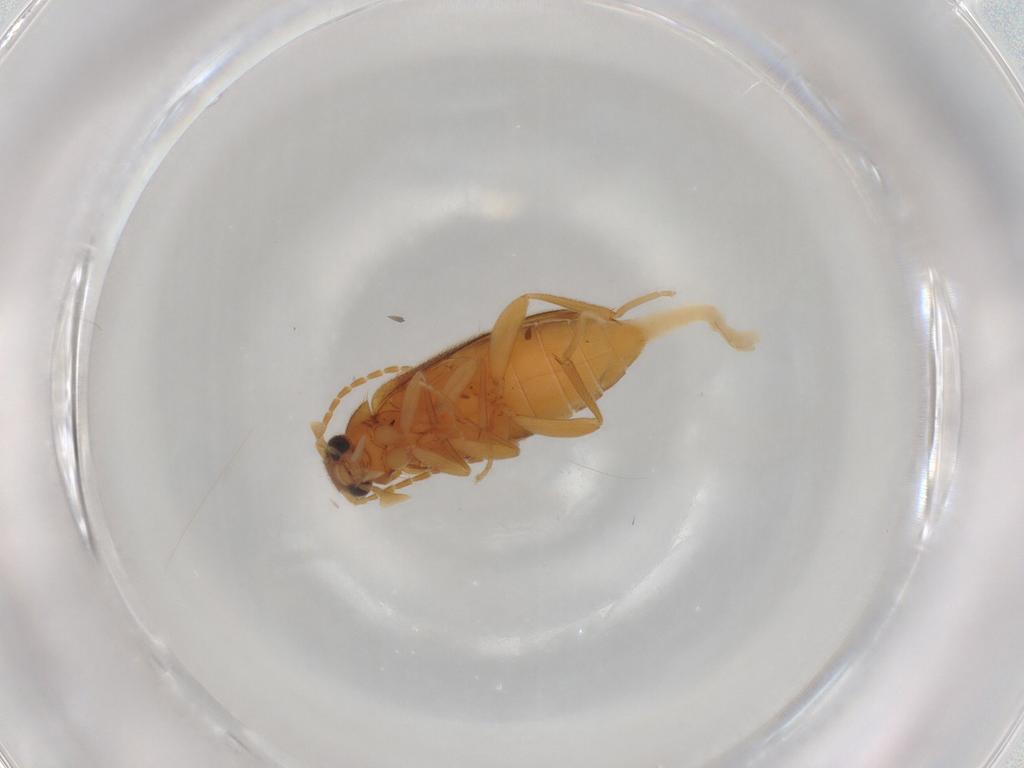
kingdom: Animalia
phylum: Arthropoda
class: Insecta
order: Coleoptera
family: Scraptiidae
